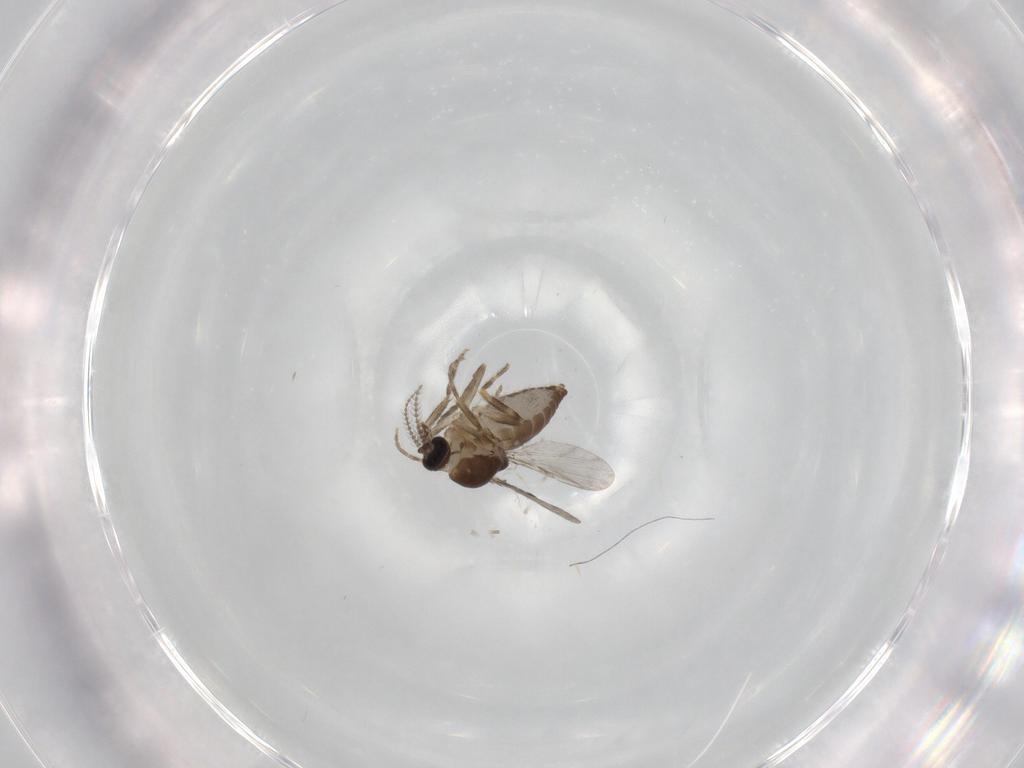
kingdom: Animalia
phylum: Arthropoda
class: Insecta
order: Diptera
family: Ceratopogonidae
